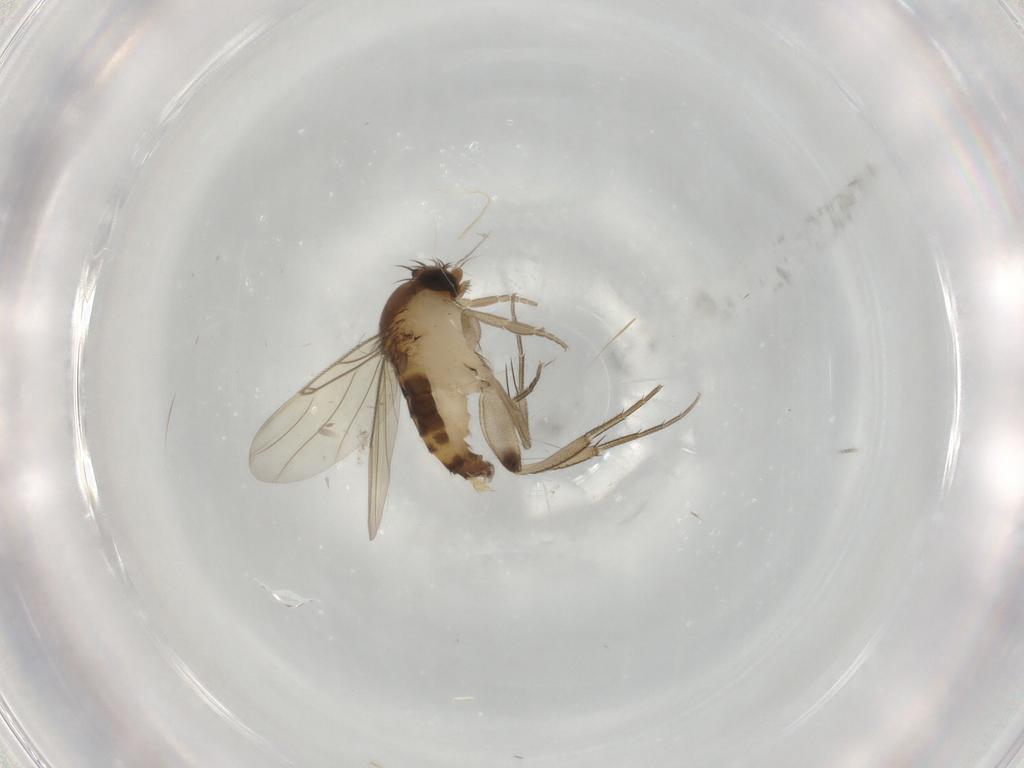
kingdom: Animalia
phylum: Arthropoda
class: Insecta
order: Diptera
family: Phoridae
